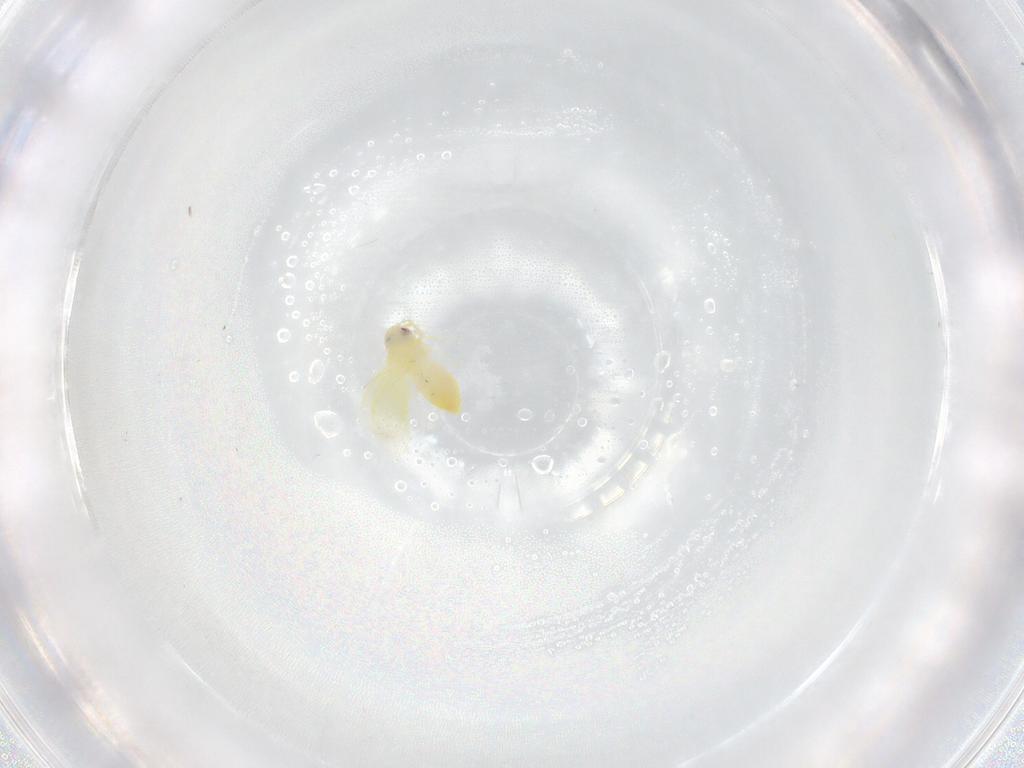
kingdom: Animalia
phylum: Arthropoda
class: Insecta
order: Hemiptera
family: Aleyrodidae
